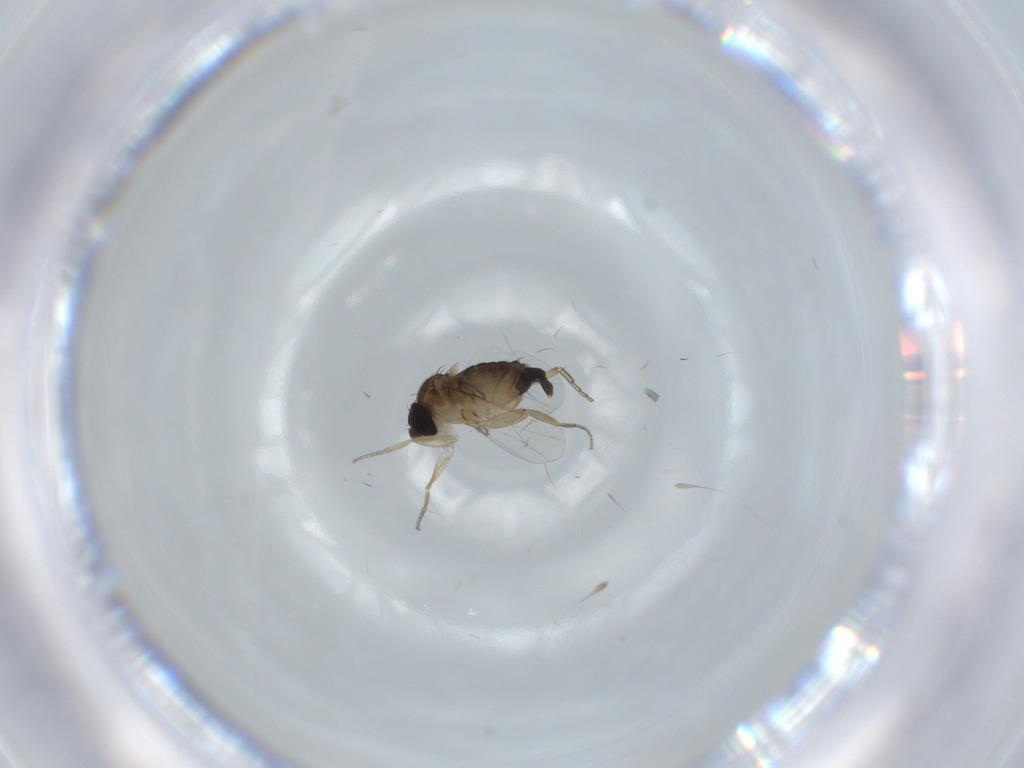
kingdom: Animalia
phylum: Arthropoda
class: Insecta
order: Diptera
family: Phoridae
